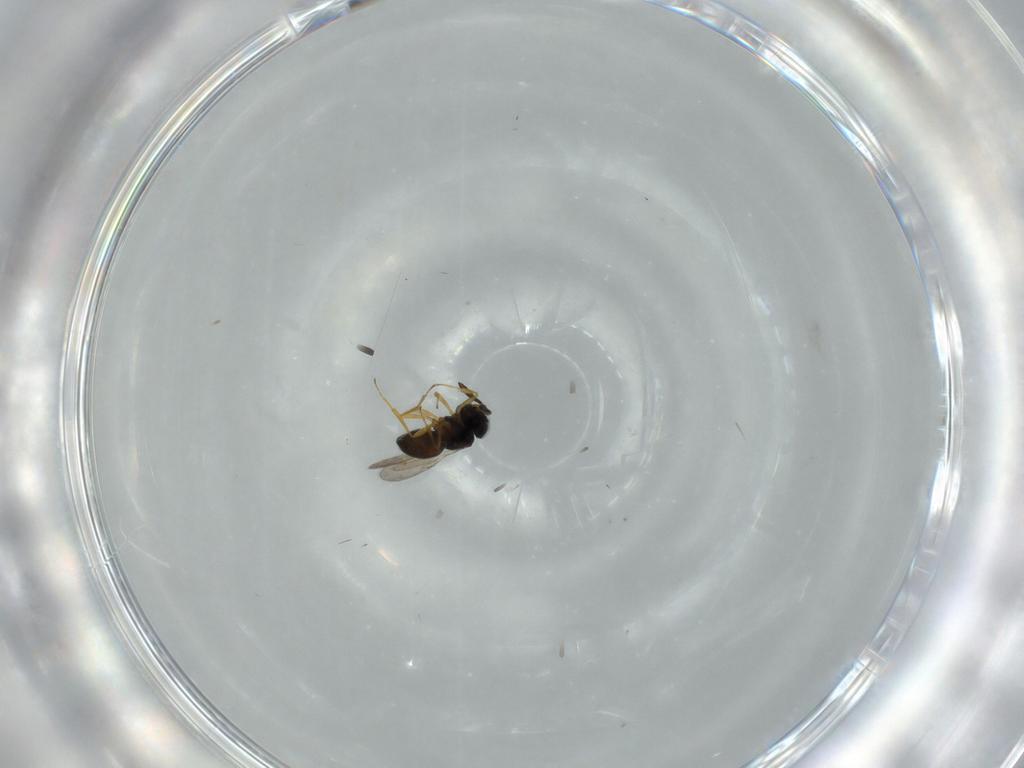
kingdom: Animalia
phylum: Arthropoda
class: Insecta
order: Hymenoptera
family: Scelionidae
